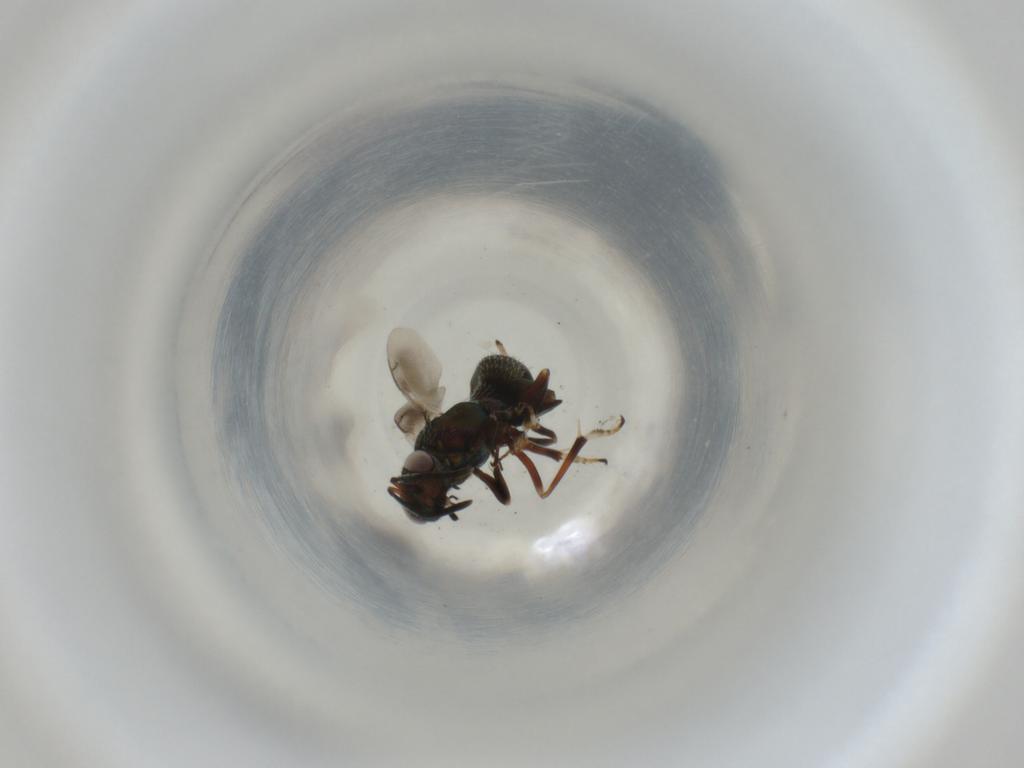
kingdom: Animalia
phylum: Arthropoda
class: Insecta
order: Hymenoptera
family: Eupelmidae
